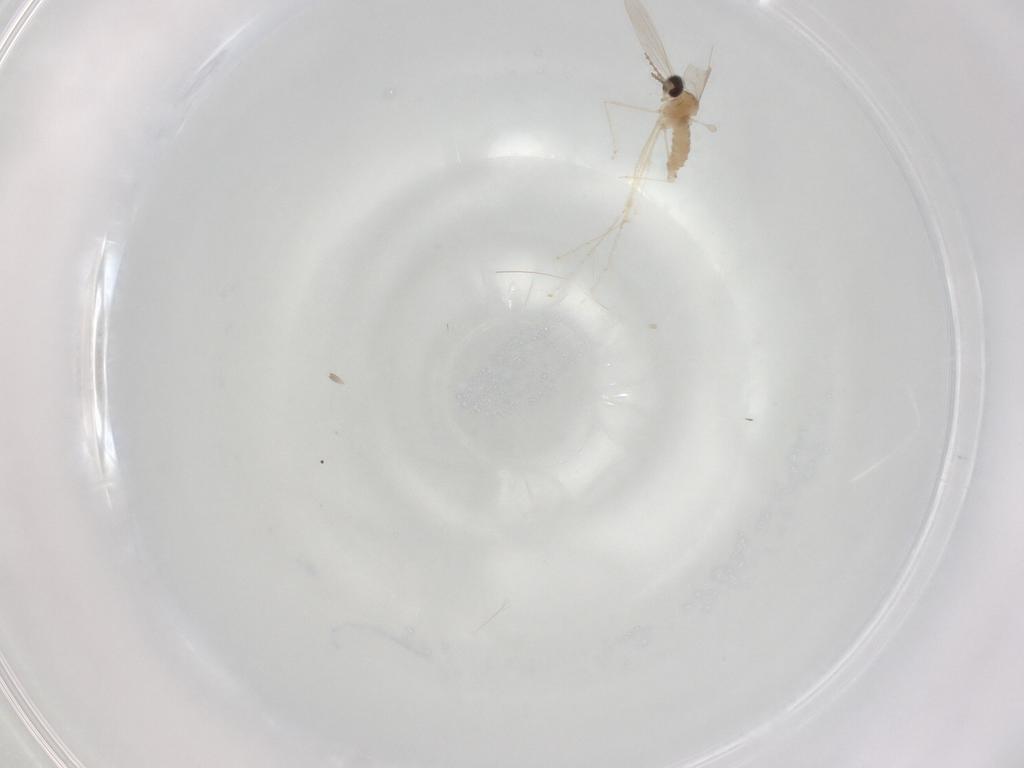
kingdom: Animalia
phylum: Arthropoda
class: Insecta
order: Diptera
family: Cecidomyiidae
